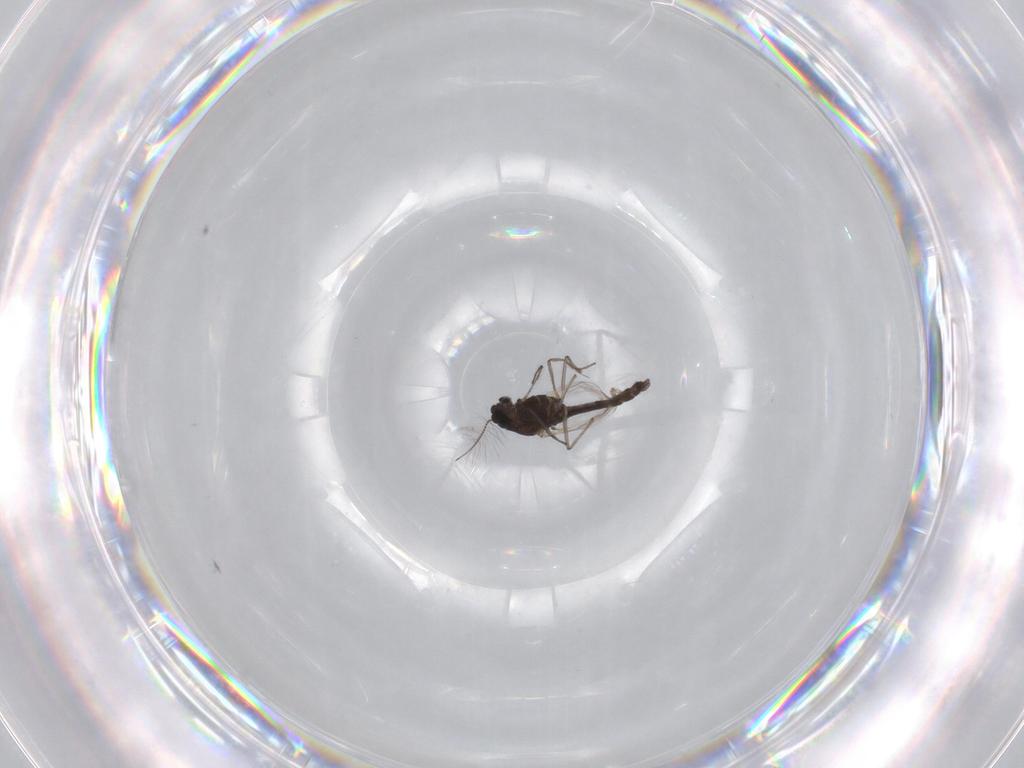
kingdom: Animalia
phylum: Arthropoda
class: Insecta
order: Diptera
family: Chironomidae
